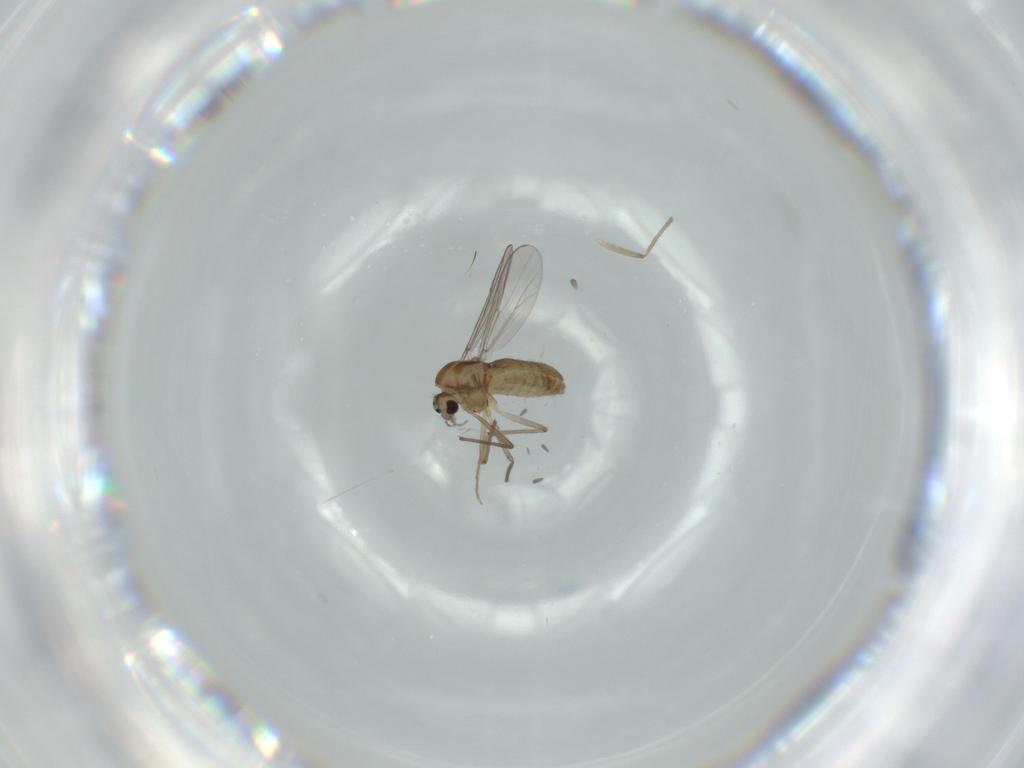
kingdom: Animalia
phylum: Arthropoda
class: Insecta
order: Diptera
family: Chironomidae
